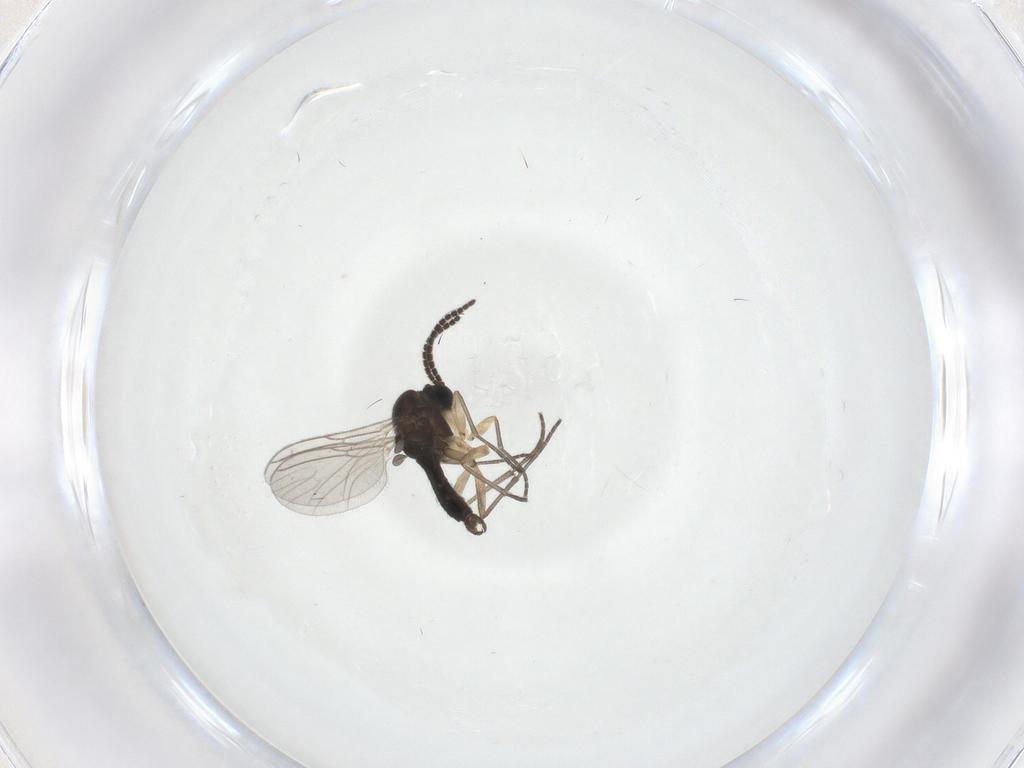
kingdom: Animalia
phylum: Arthropoda
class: Insecta
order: Diptera
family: Sciaridae
